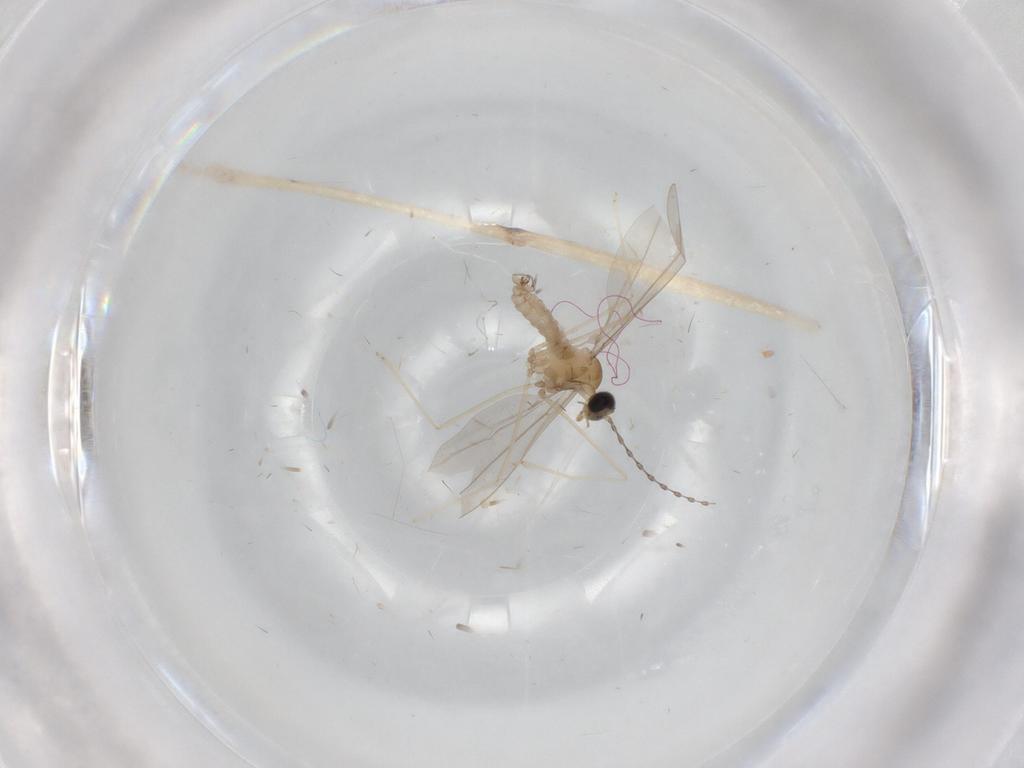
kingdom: Animalia
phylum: Arthropoda
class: Insecta
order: Diptera
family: Cecidomyiidae
